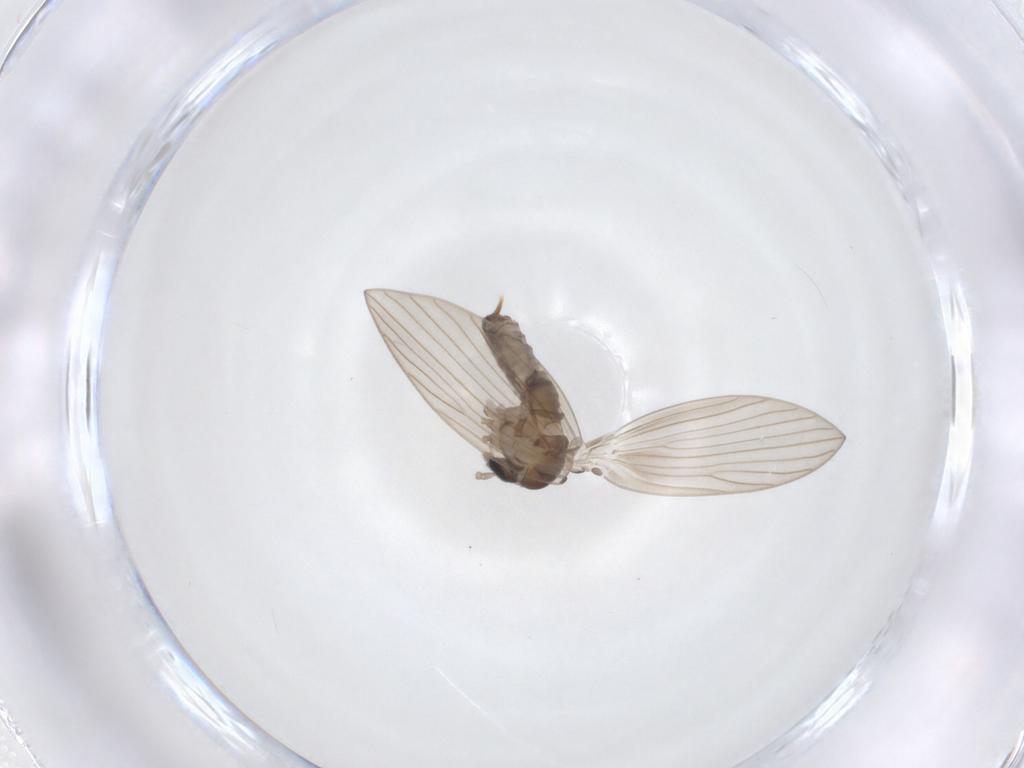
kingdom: Animalia
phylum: Arthropoda
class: Insecta
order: Diptera
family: Psychodidae
